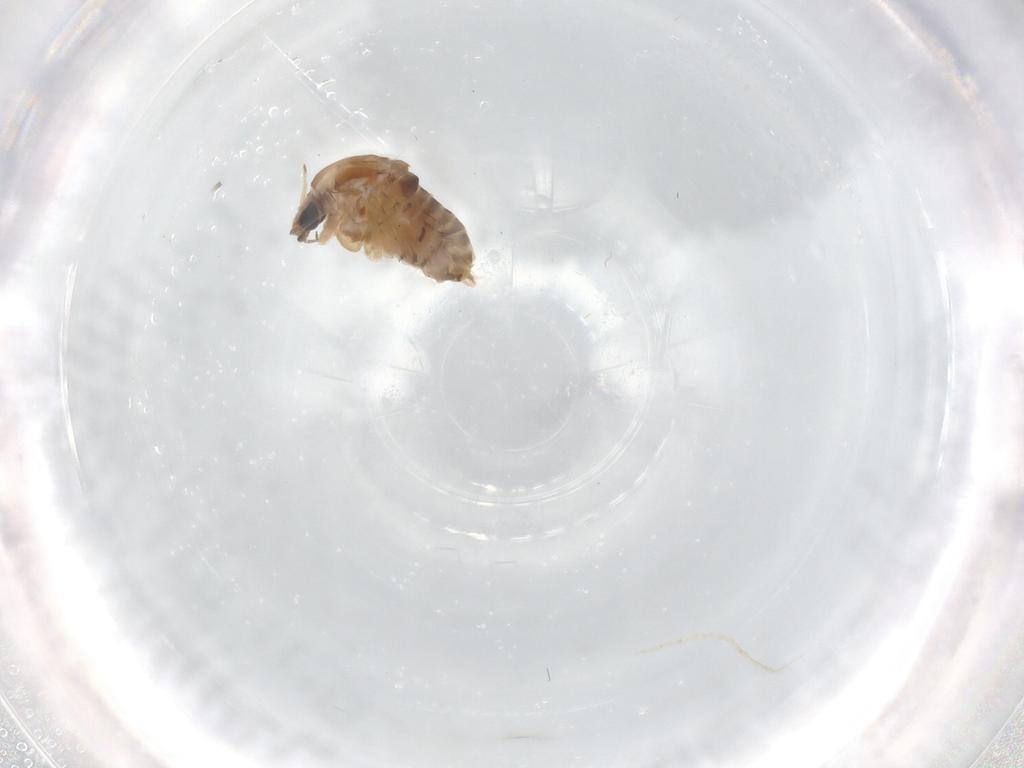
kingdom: Animalia
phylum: Arthropoda
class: Insecta
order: Diptera
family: Chironomidae
